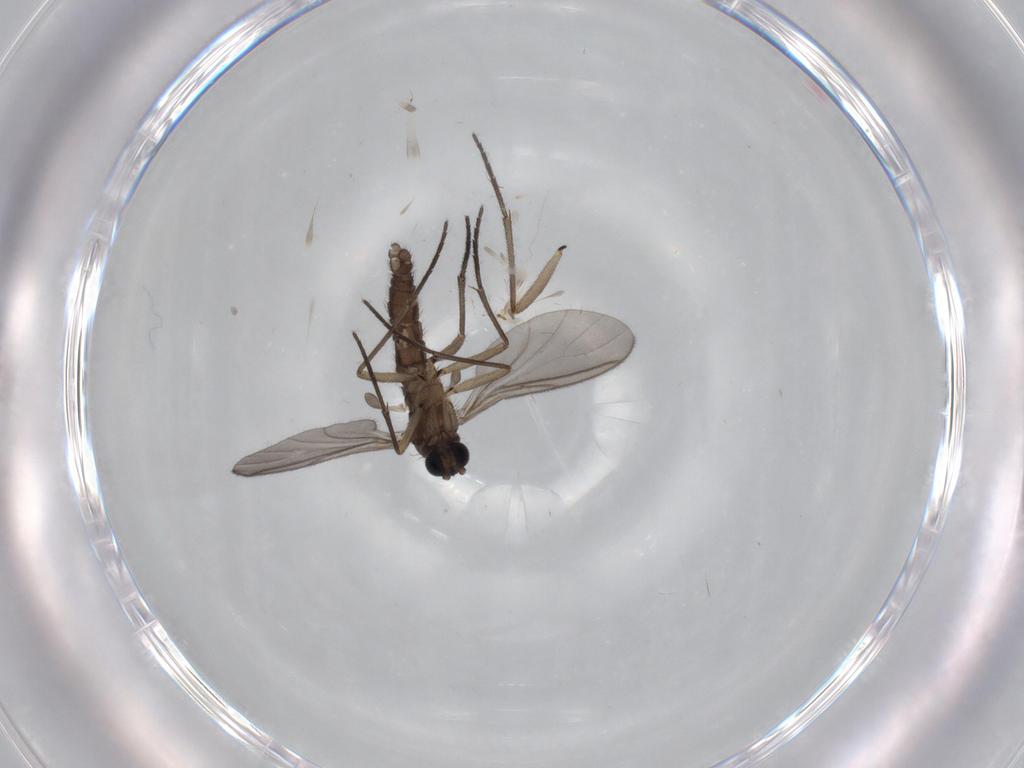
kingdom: Animalia
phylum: Arthropoda
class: Insecta
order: Diptera
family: Sciaridae
